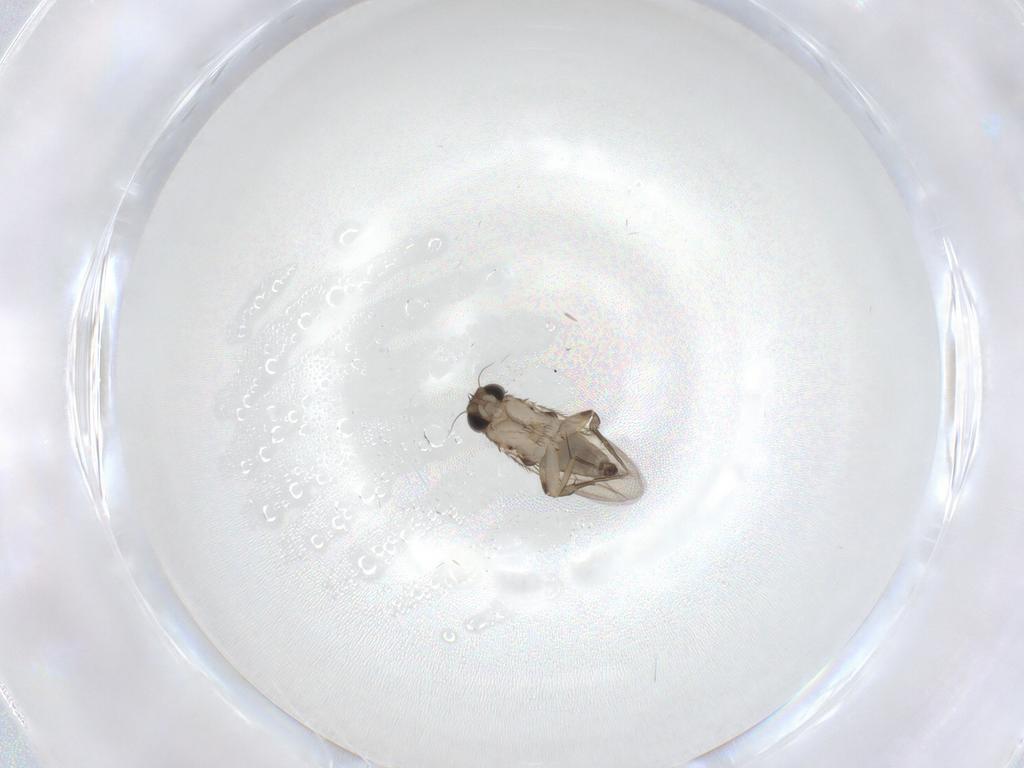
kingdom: Animalia
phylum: Arthropoda
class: Insecta
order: Diptera
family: Phoridae
